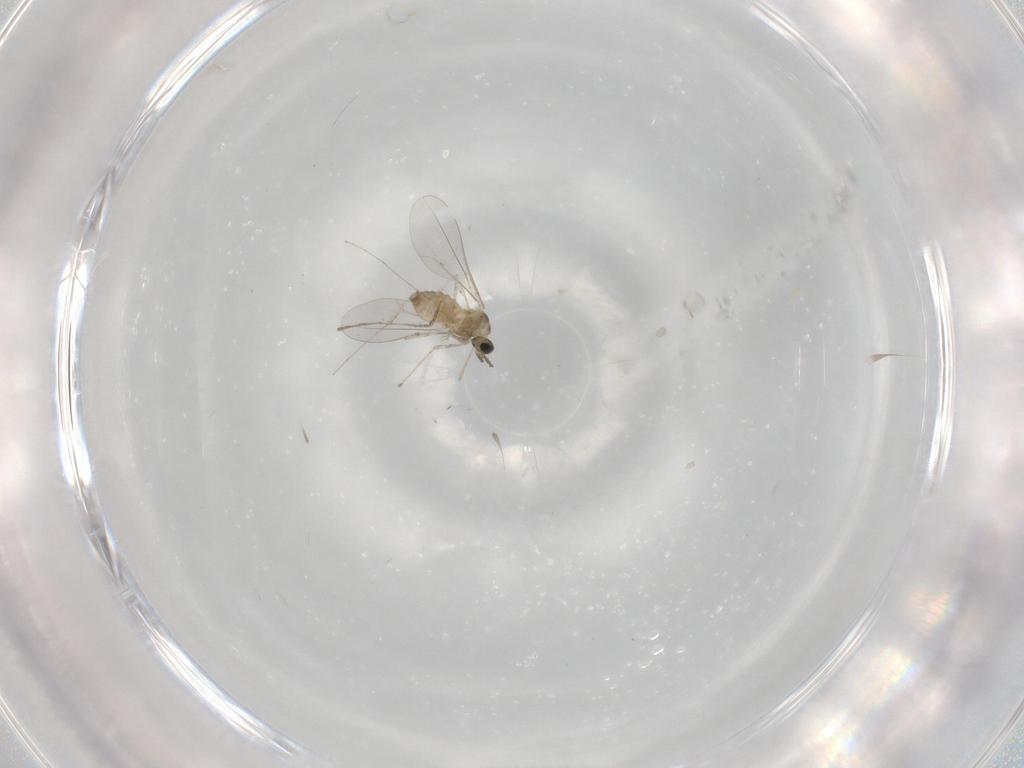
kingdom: Animalia
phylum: Arthropoda
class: Insecta
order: Diptera
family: Cecidomyiidae
